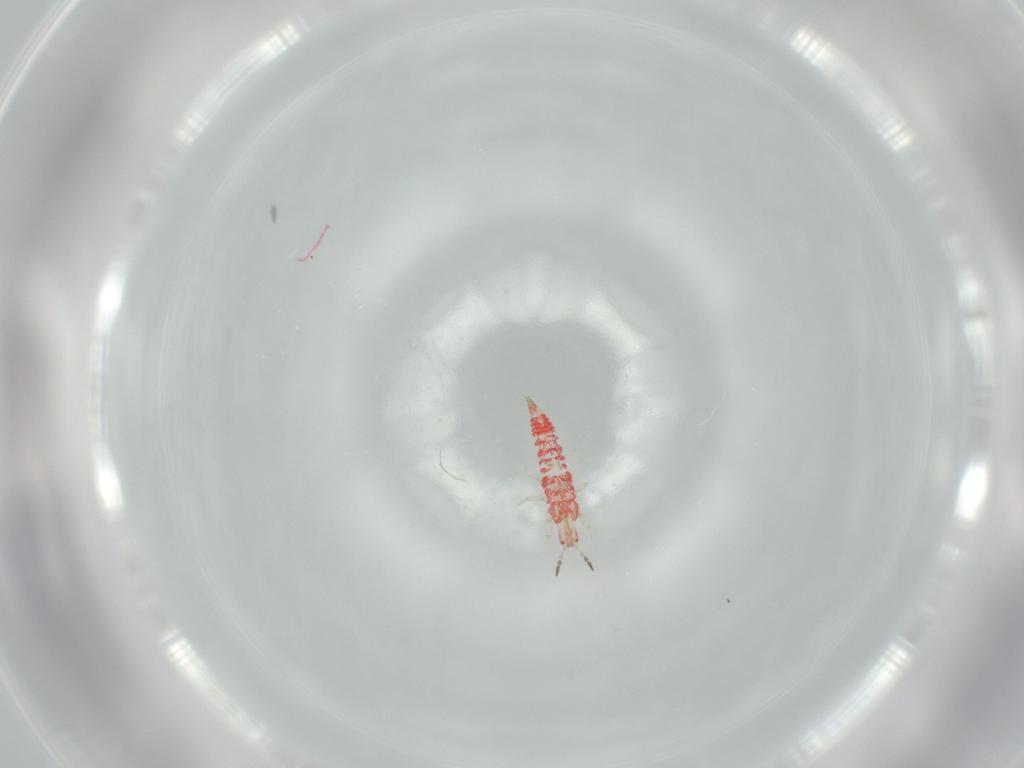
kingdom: Animalia
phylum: Arthropoda
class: Insecta
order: Thysanoptera
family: Phlaeothripidae
